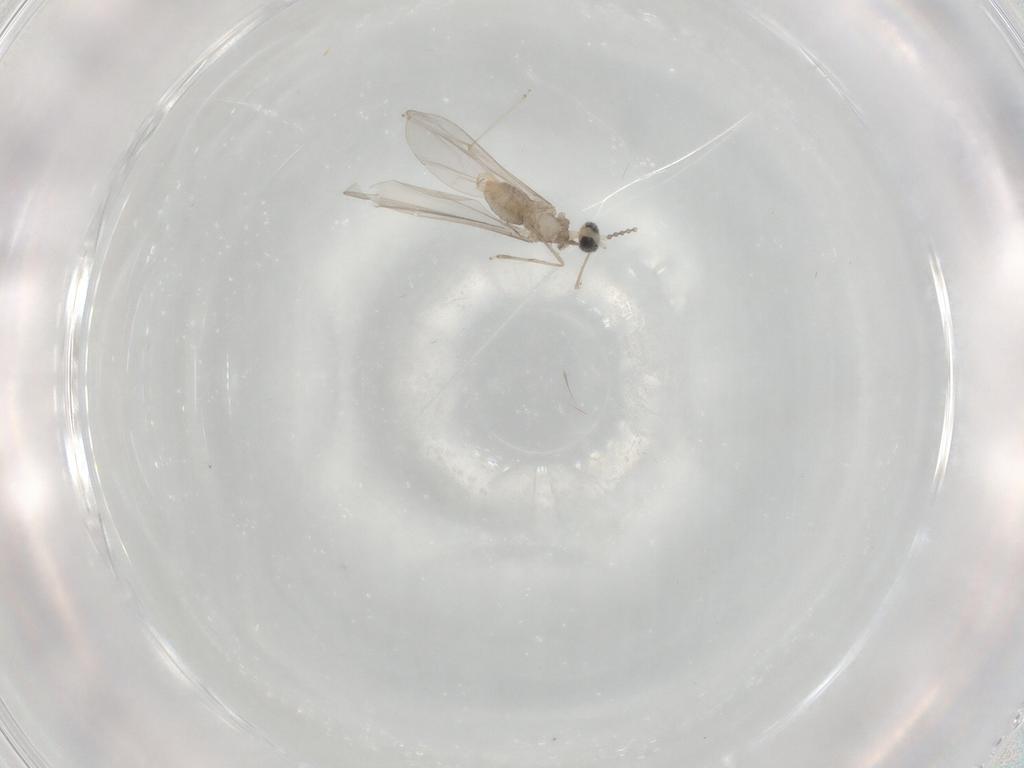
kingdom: Animalia
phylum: Arthropoda
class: Insecta
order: Diptera
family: Cecidomyiidae
